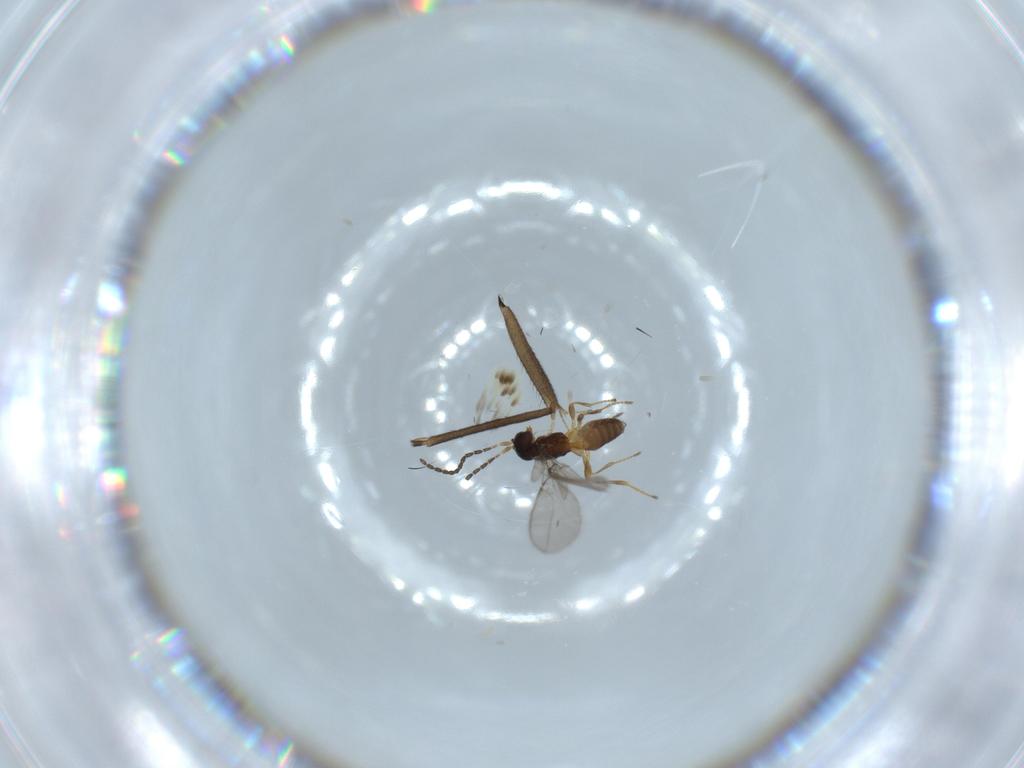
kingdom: Animalia
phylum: Arthropoda
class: Insecta
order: Hymenoptera
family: Braconidae
